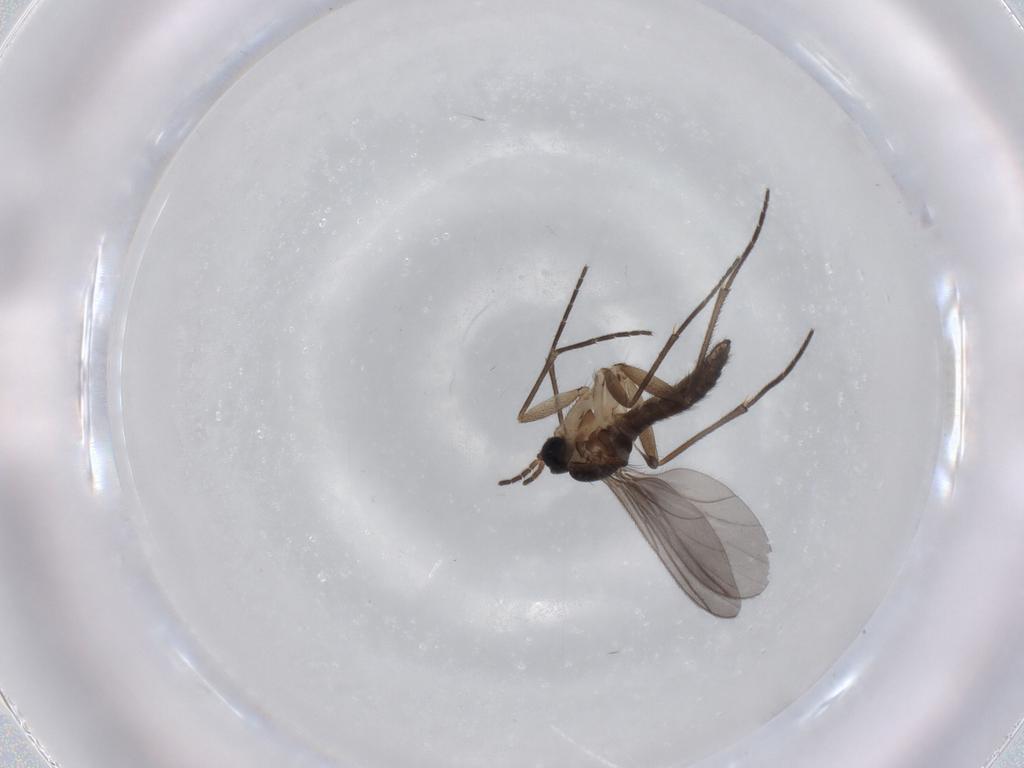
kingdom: Animalia
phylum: Arthropoda
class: Insecta
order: Diptera
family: Sciaridae
